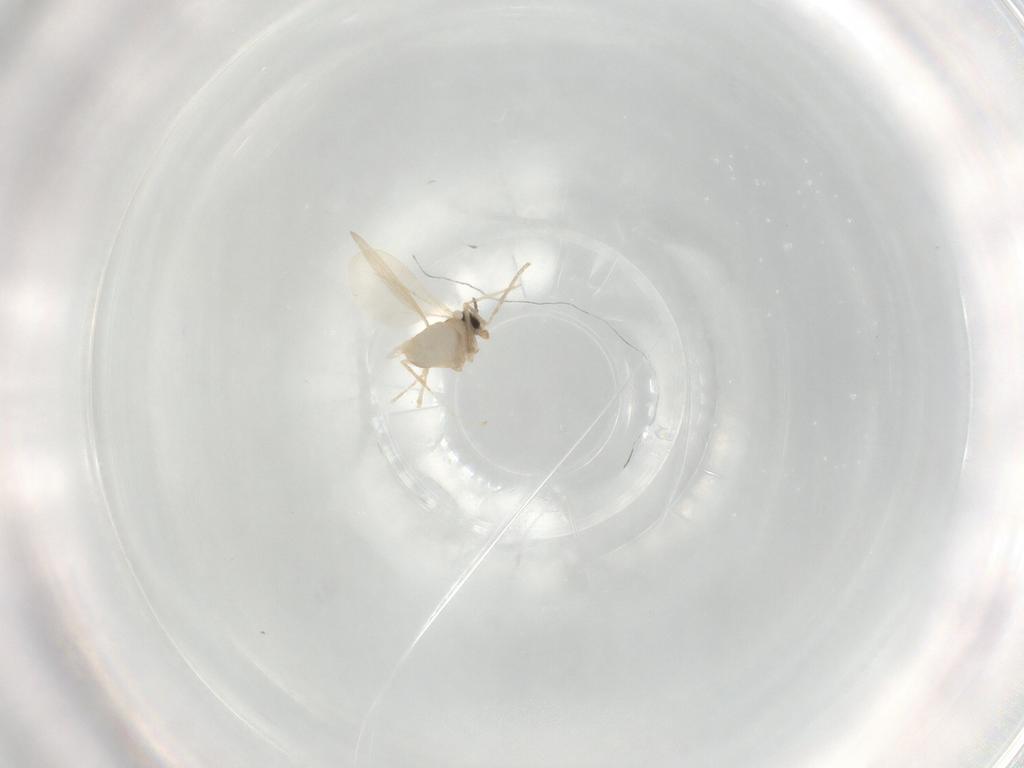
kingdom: Animalia
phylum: Arthropoda
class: Insecta
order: Diptera
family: Cecidomyiidae
